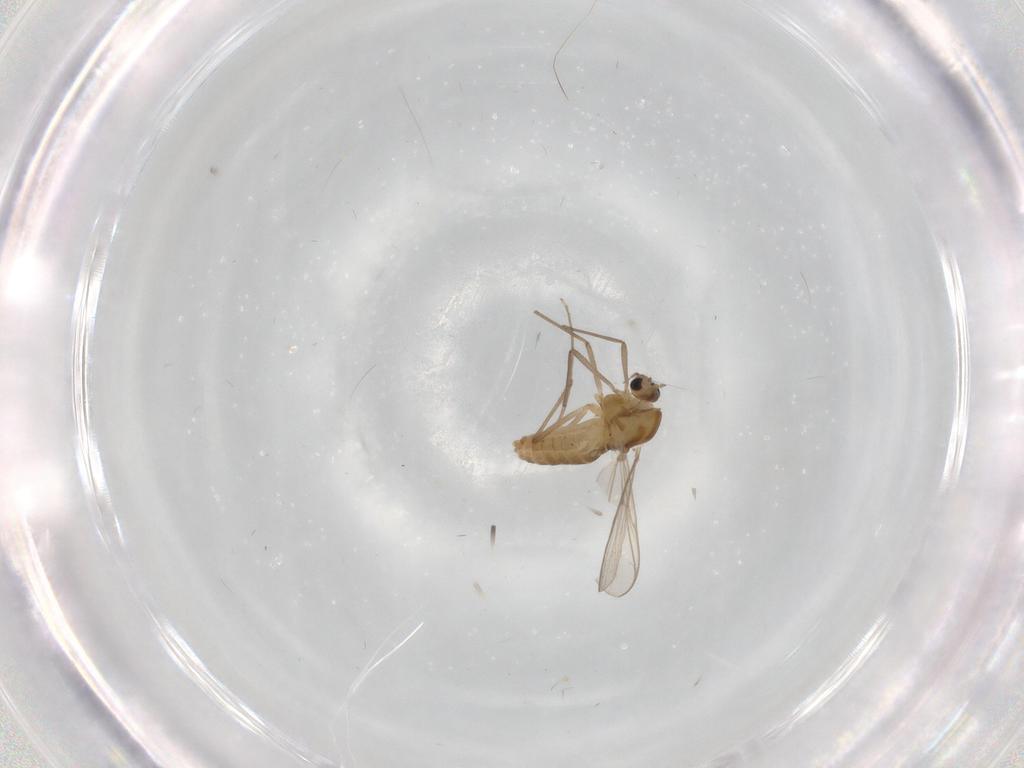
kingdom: Animalia
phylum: Arthropoda
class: Insecta
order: Diptera
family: Chironomidae
